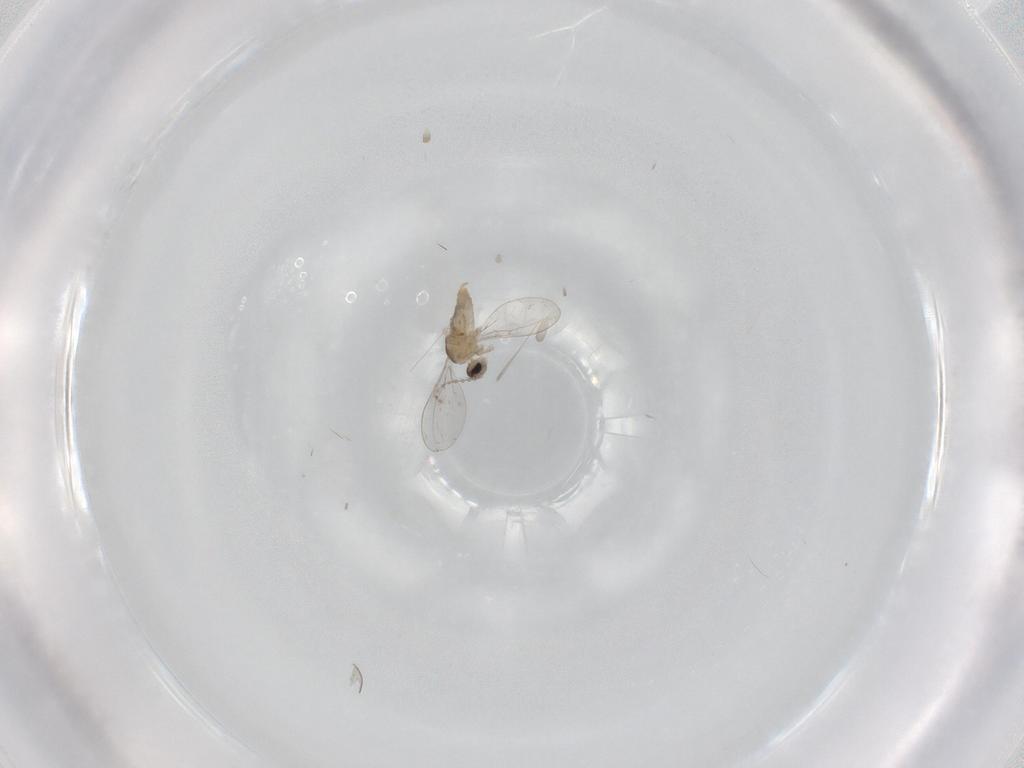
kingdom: Animalia
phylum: Arthropoda
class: Insecta
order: Diptera
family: Cecidomyiidae
